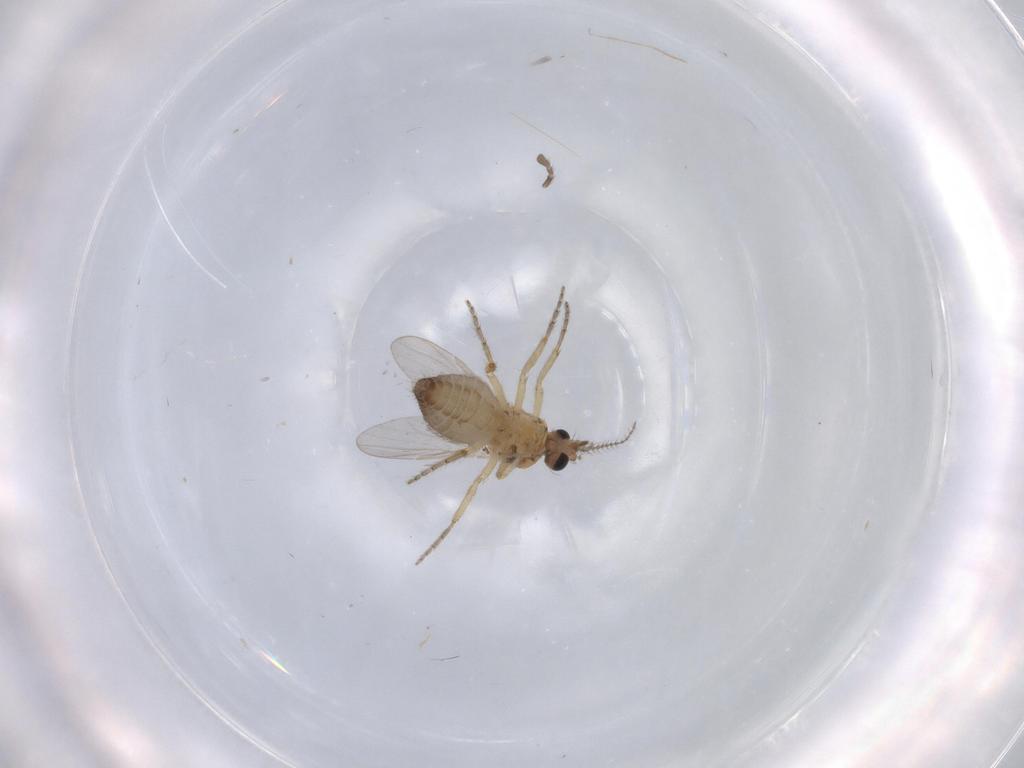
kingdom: Animalia
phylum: Arthropoda
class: Insecta
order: Diptera
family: Ceratopogonidae
